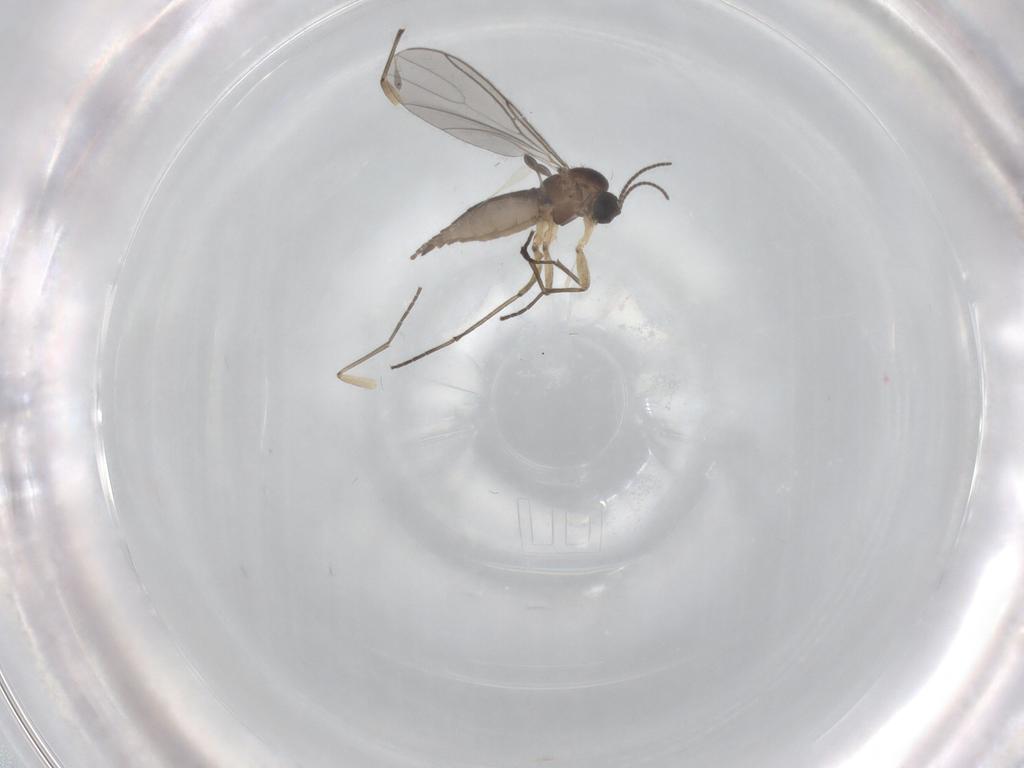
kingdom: Animalia
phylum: Arthropoda
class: Insecta
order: Diptera
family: Sciaridae
